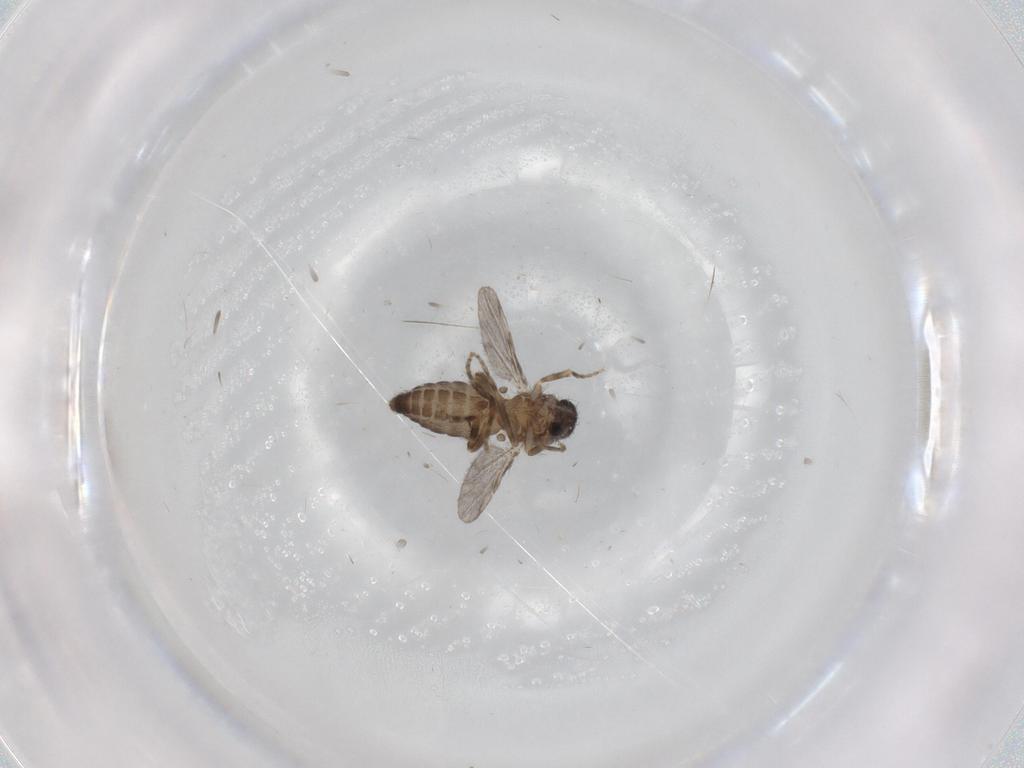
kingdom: Animalia
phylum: Arthropoda
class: Insecta
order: Diptera
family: Ceratopogonidae
